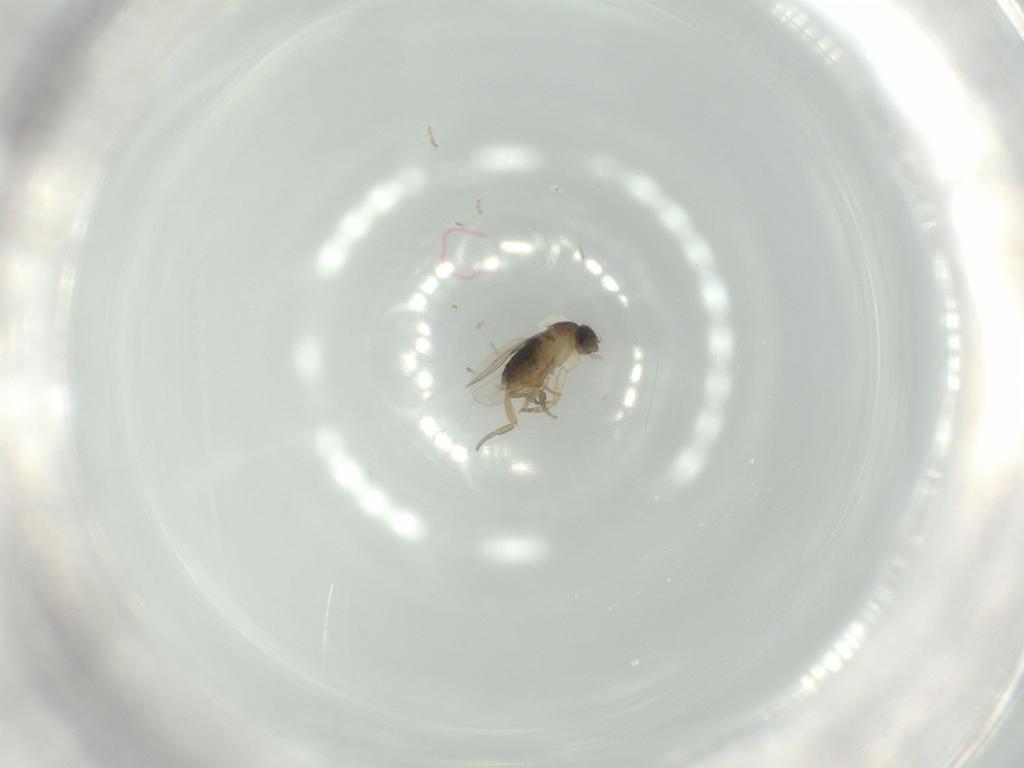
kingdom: Animalia
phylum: Arthropoda
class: Insecta
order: Diptera
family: Phoridae
